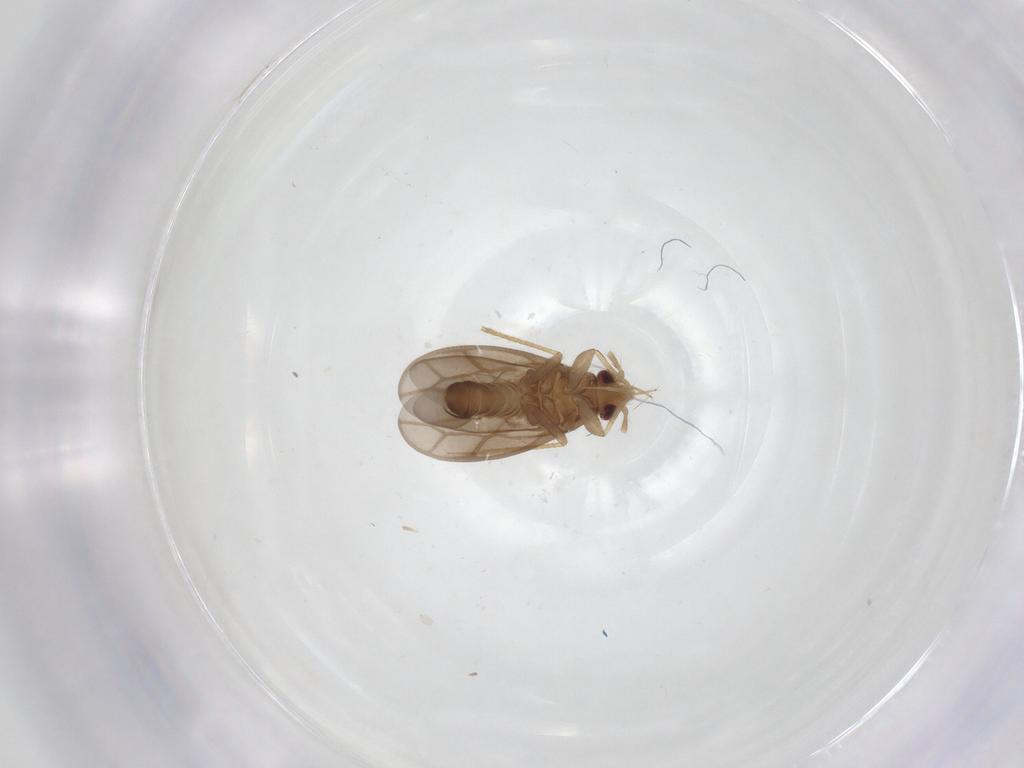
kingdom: Animalia
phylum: Arthropoda
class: Insecta
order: Hemiptera
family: Ceratocombidae
